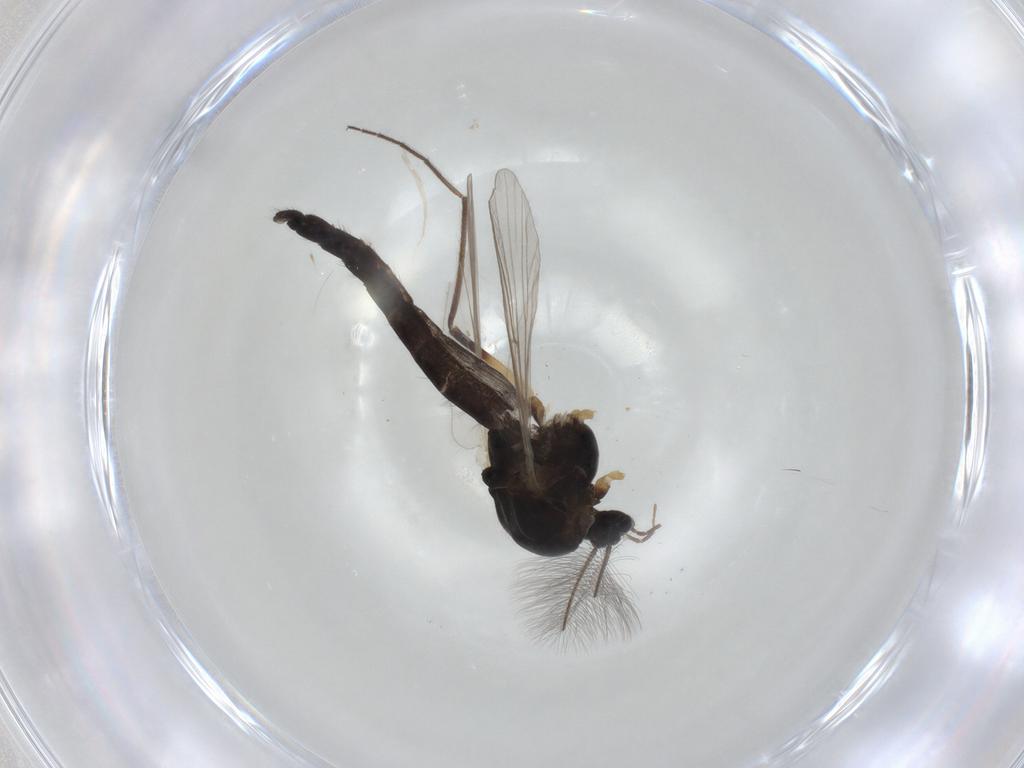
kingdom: Animalia
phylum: Arthropoda
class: Insecta
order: Diptera
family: Ceratopogonidae
